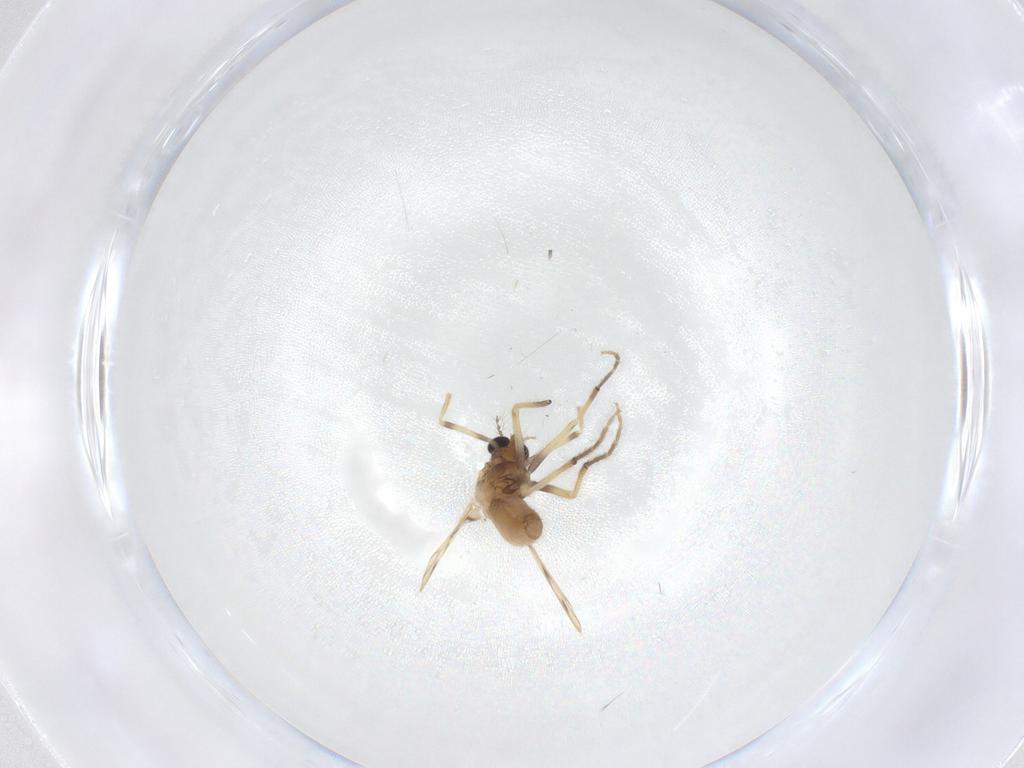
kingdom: Animalia
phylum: Arthropoda
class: Insecta
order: Diptera
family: Chironomidae
